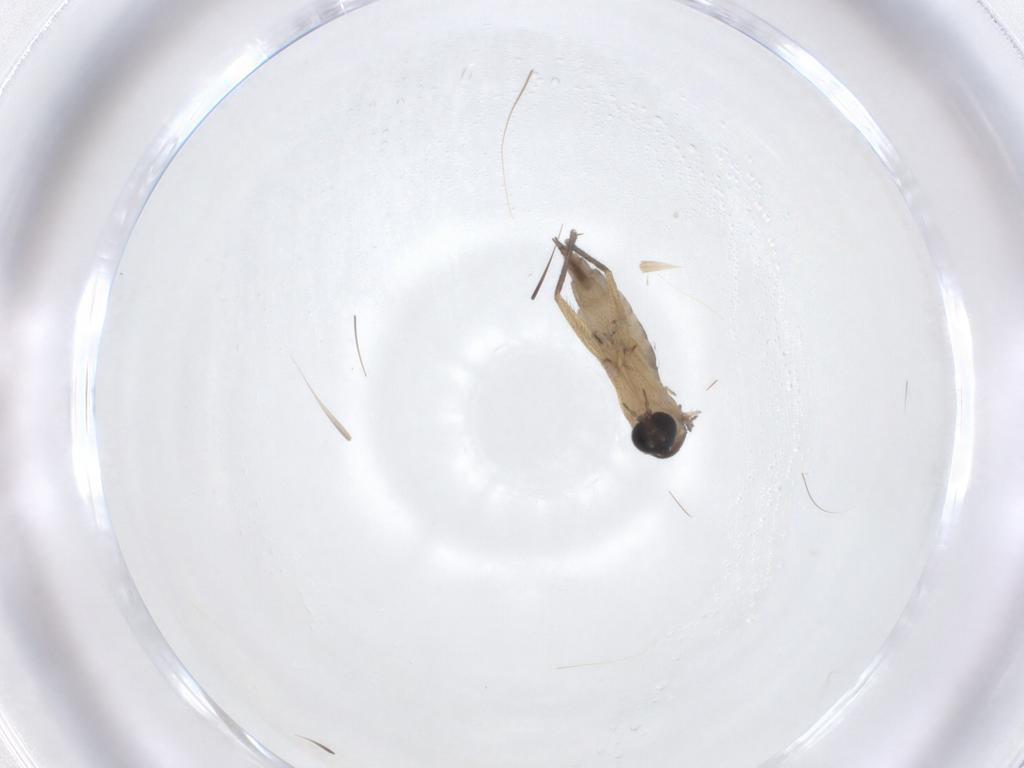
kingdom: Animalia
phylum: Arthropoda
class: Insecta
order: Diptera
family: Sciaridae
